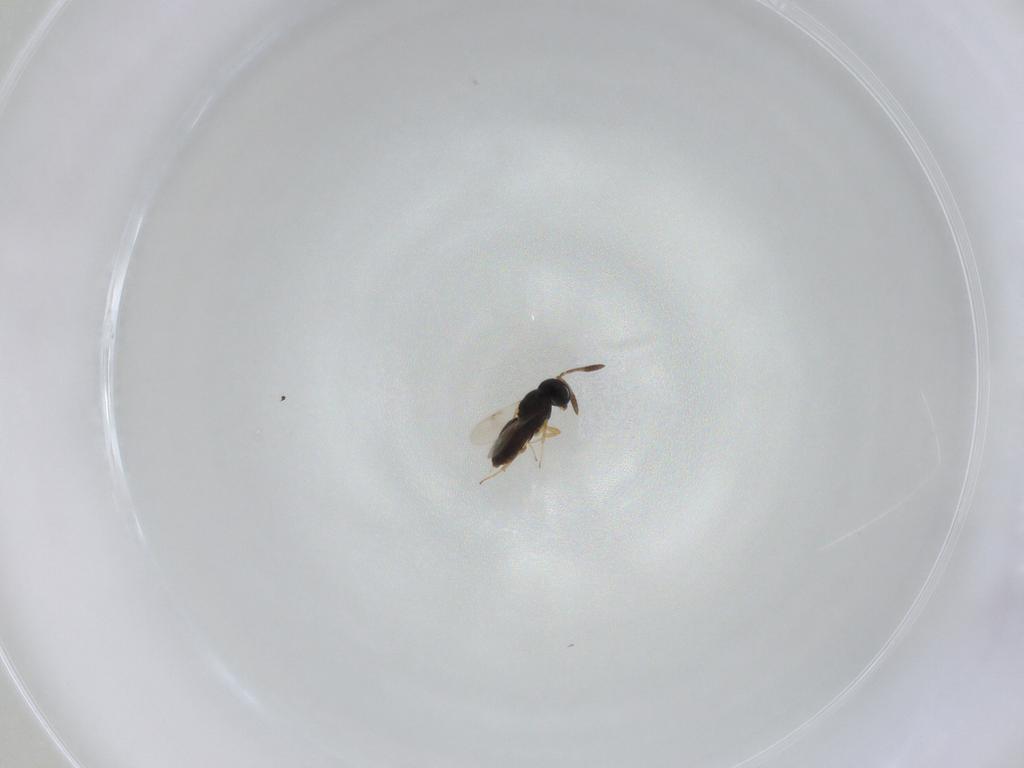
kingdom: Animalia
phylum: Arthropoda
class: Insecta
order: Hymenoptera
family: Scelionidae
